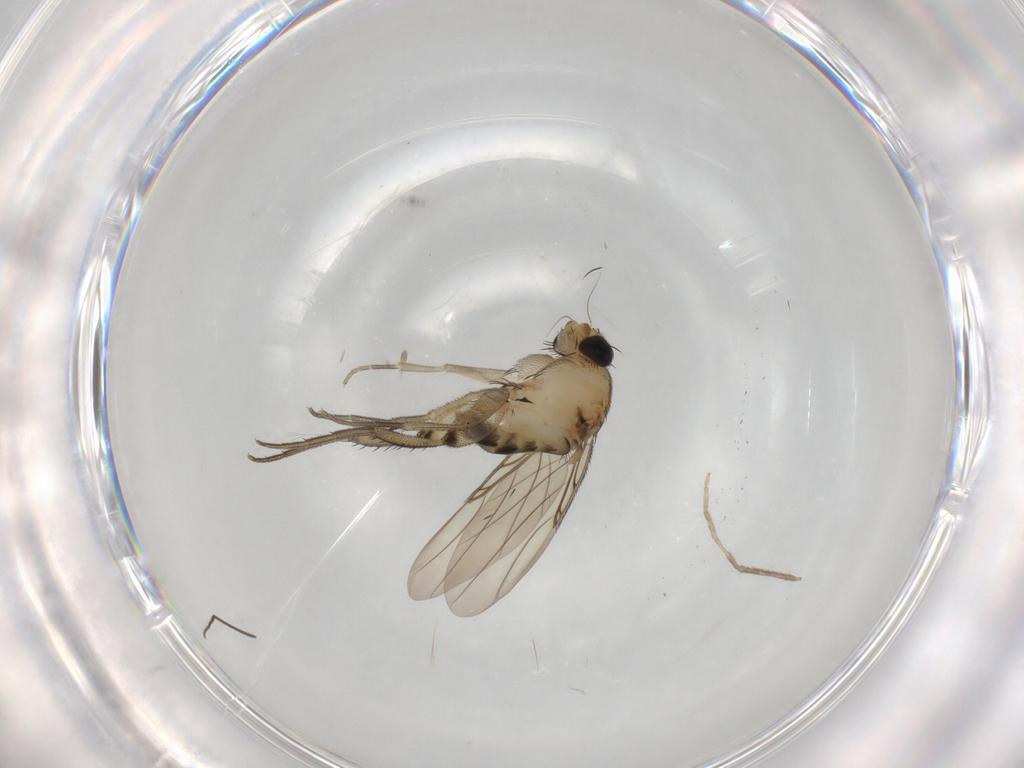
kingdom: Animalia
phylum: Arthropoda
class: Insecta
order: Diptera
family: Phoridae
